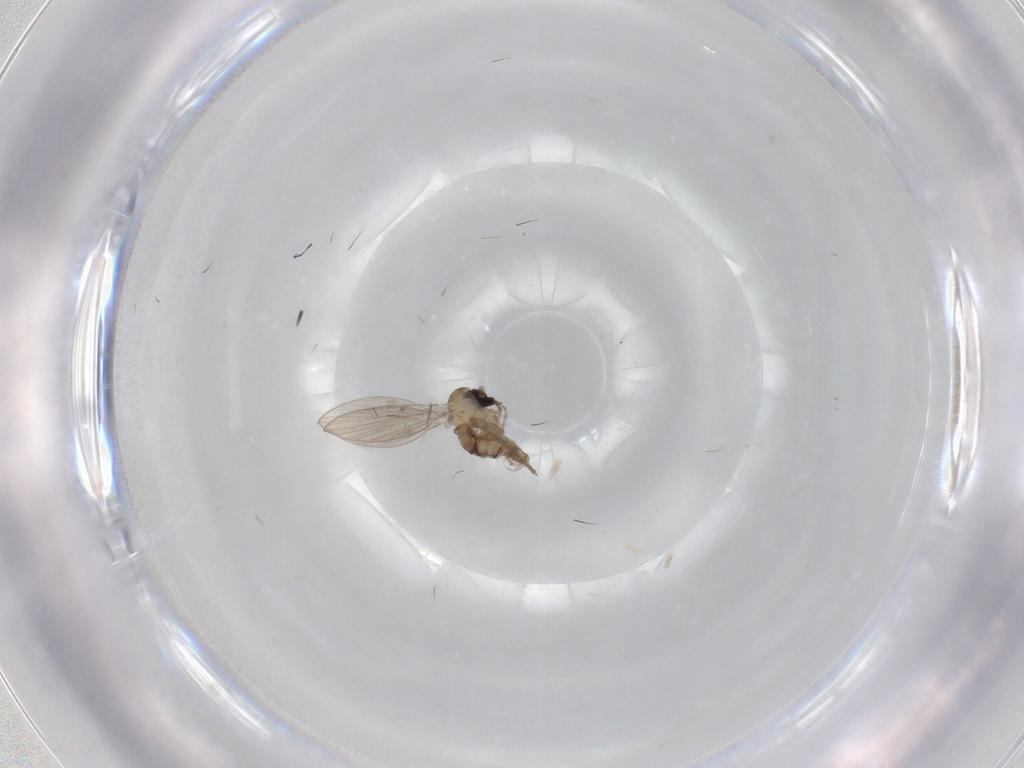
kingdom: Animalia
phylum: Arthropoda
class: Insecta
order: Diptera
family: Psychodidae
